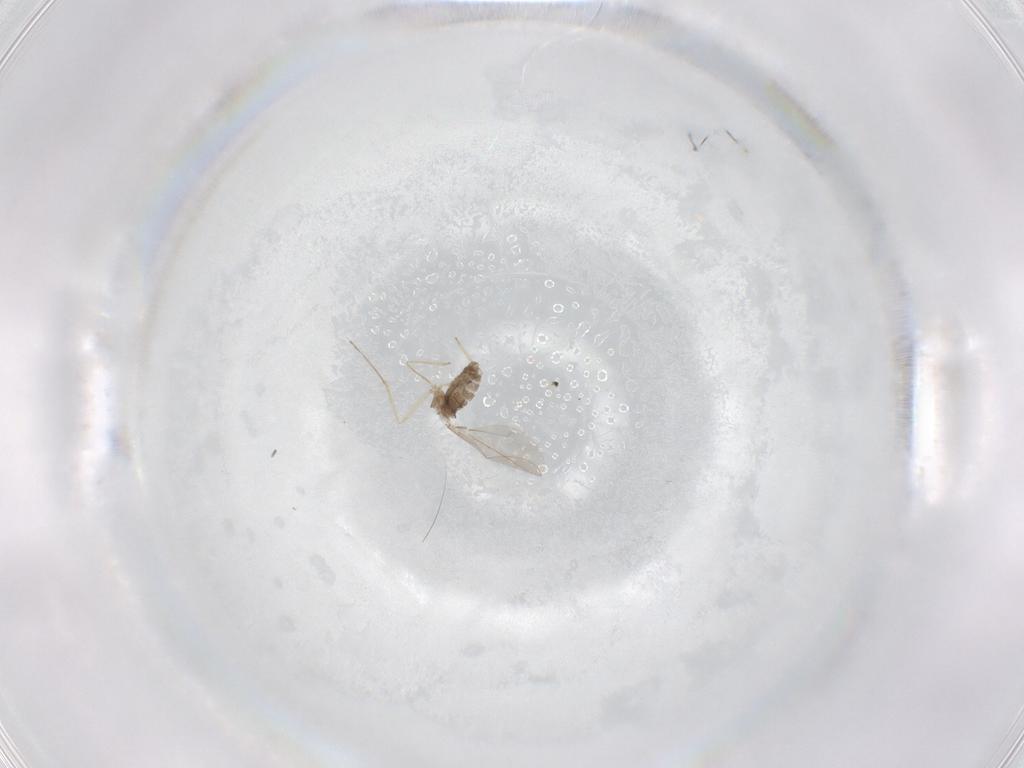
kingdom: Animalia
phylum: Arthropoda
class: Insecta
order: Diptera
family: Cecidomyiidae
